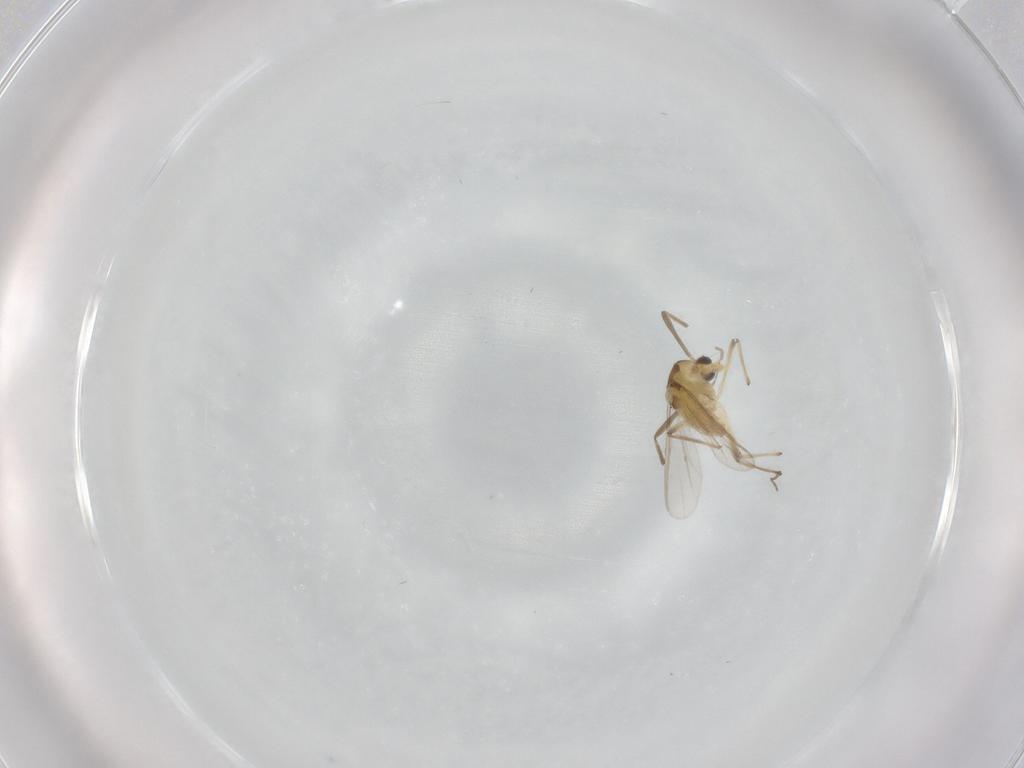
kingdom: Animalia
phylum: Arthropoda
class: Insecta
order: Diptera
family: Chironomidae
